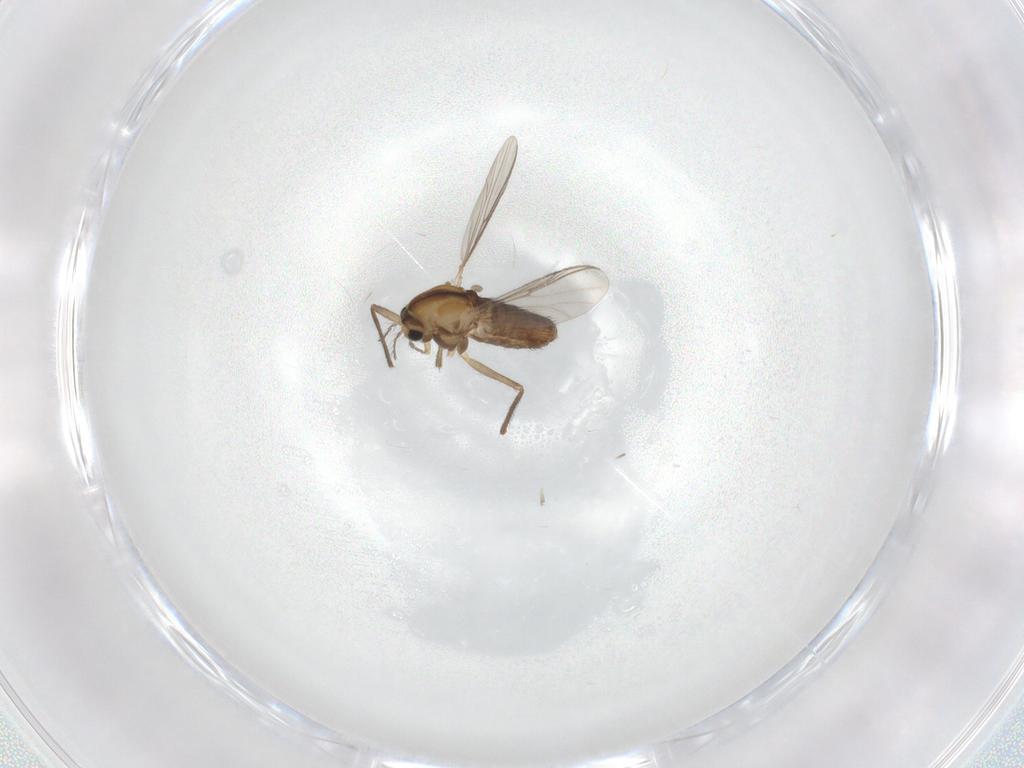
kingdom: Animalia
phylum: Arthropoda
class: Insecta
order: Diptera
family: Chironomidae
